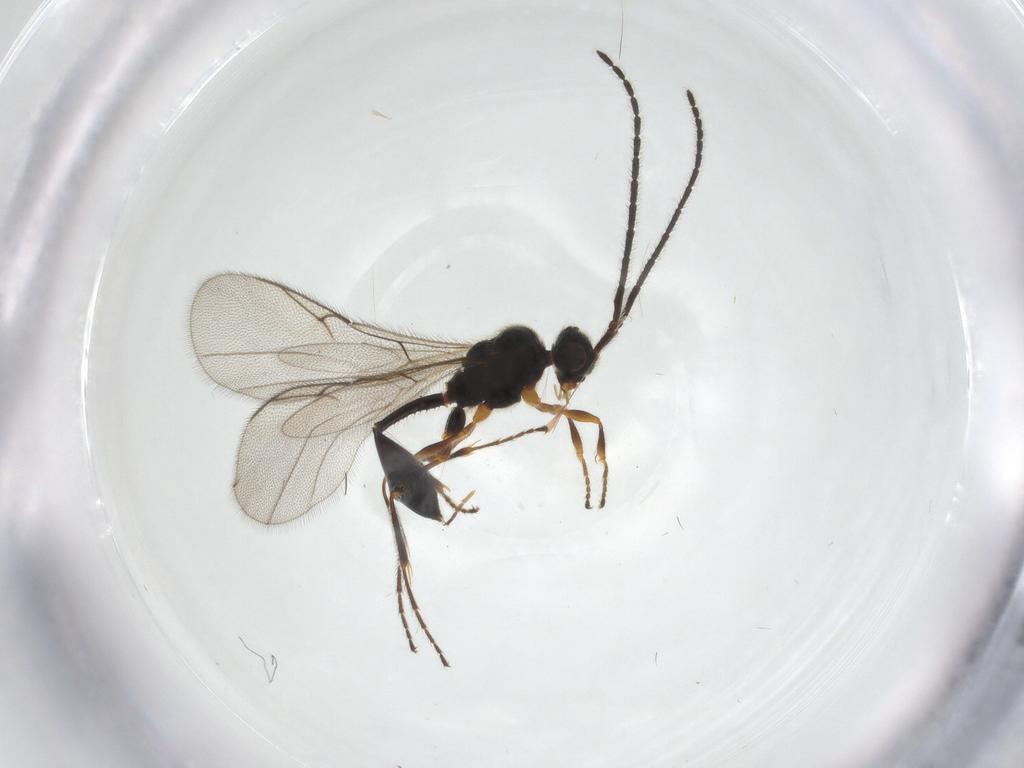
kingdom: Animalia
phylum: Arthropoda
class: Insecta
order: Hymenoptera
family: Diapriidae
